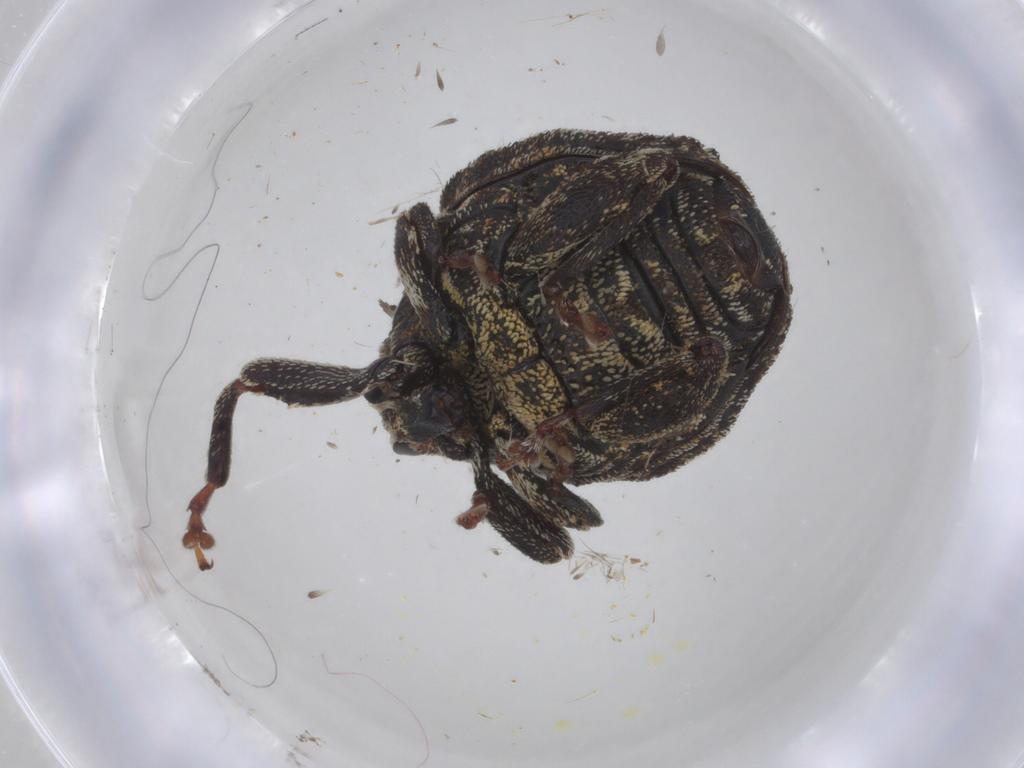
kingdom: Animalia
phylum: Arthropoda
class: Insecta
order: Coleoptera
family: Curculionidae
